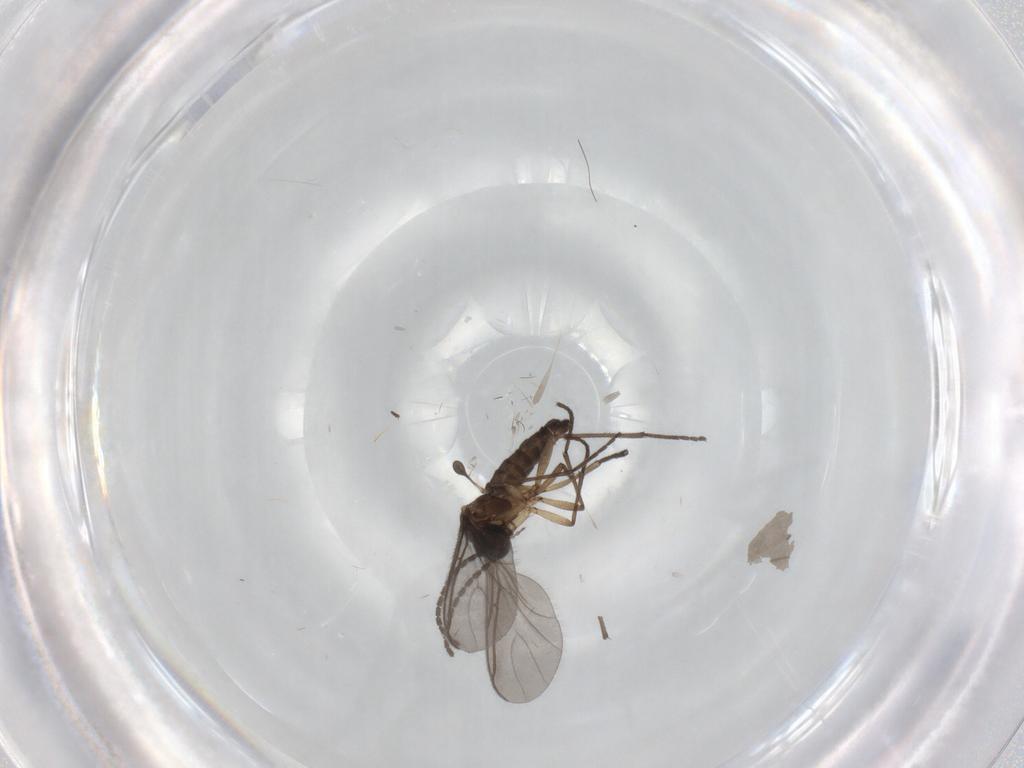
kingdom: Animalia
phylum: Arthropoda
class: Insecta
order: Diptera
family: Sciaridae
